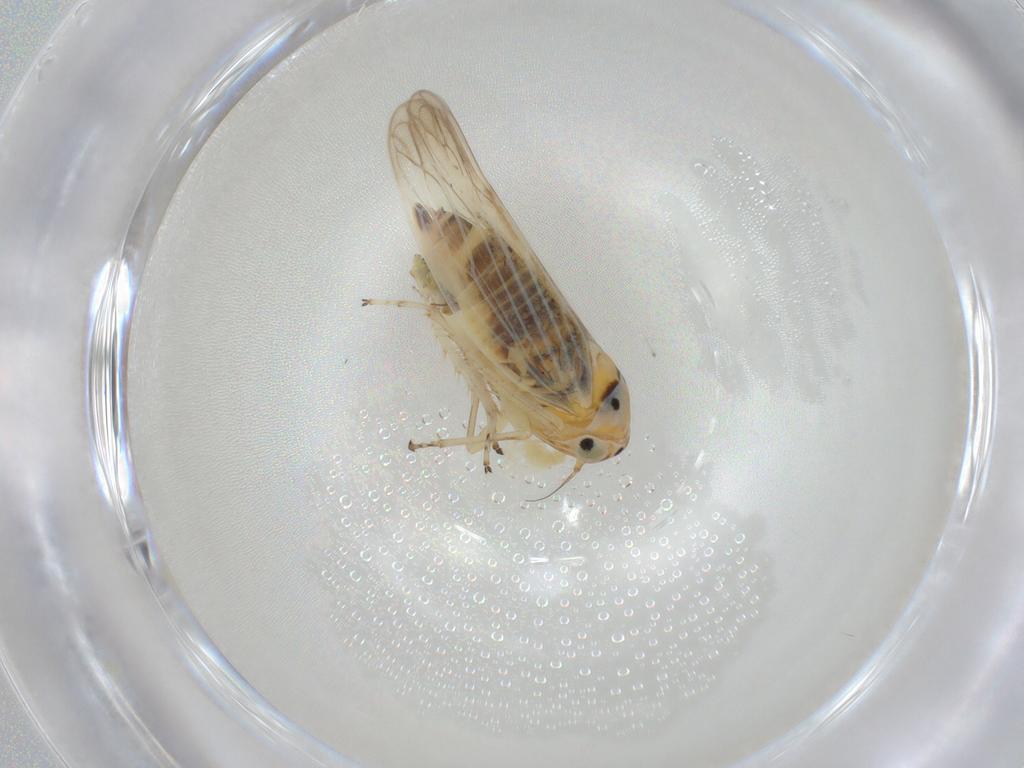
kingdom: Animalia
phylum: Arthropoda
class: Insecta
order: Hemiptera
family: Cicadellidae
